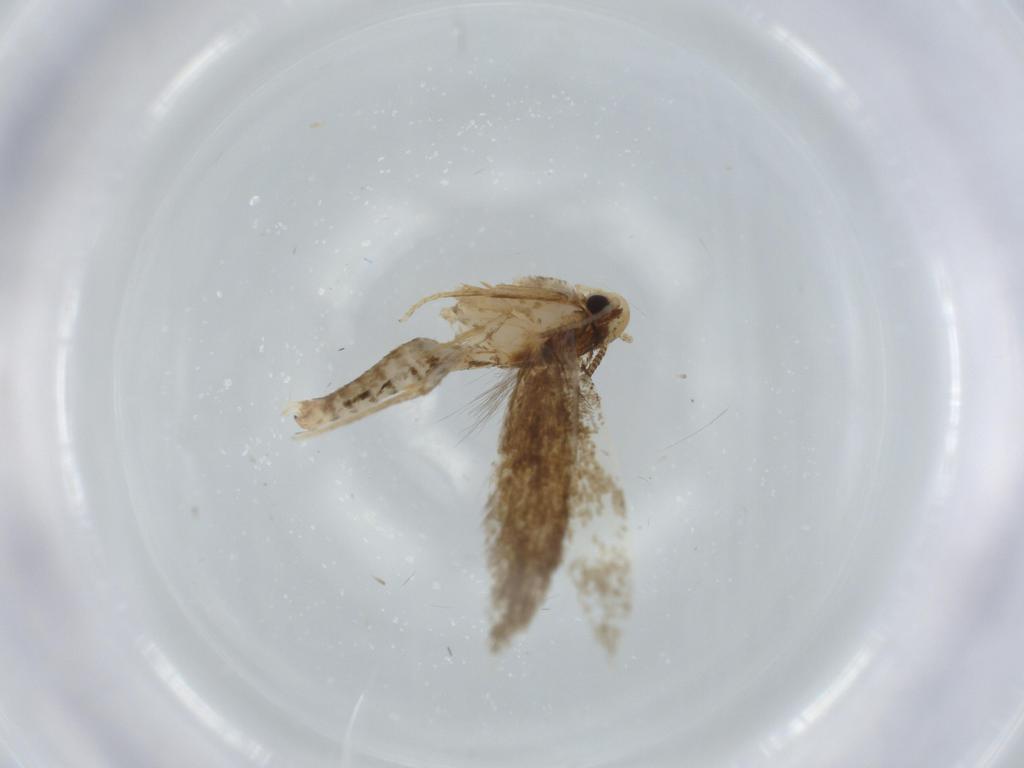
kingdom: Animalia
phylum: Arthropoda
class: Insecta
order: Lepidoptera
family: Tineidae
